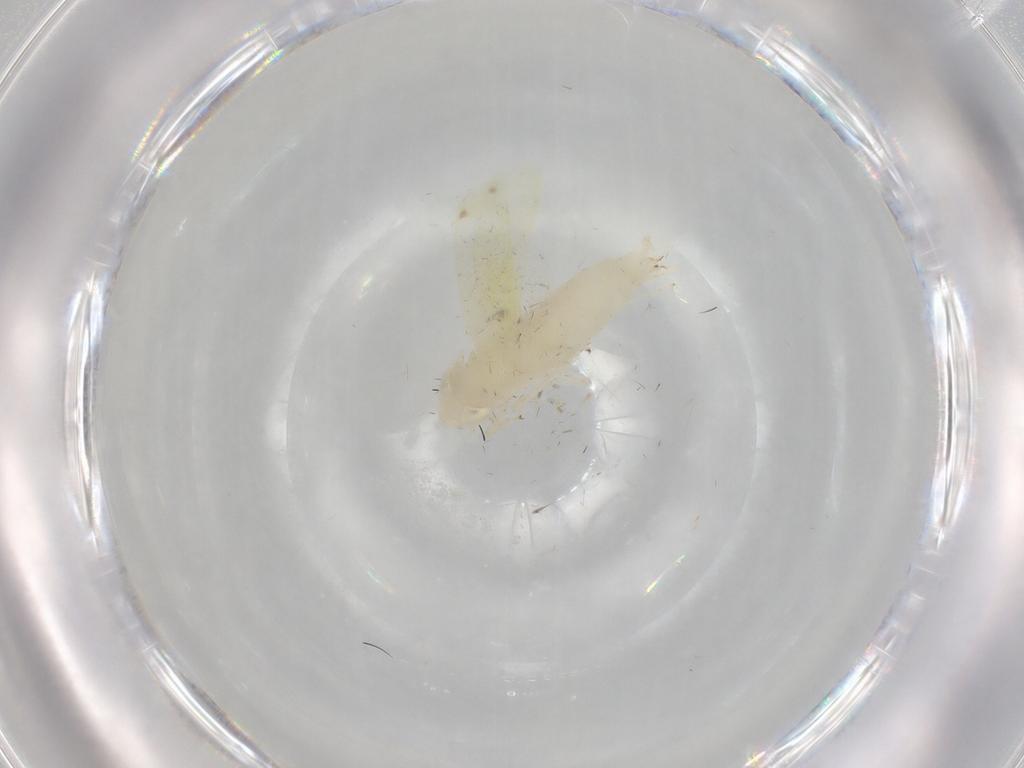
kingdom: Animalia
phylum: Arthropoda
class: Insecta
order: Hemiptera
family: Cicadellidae
